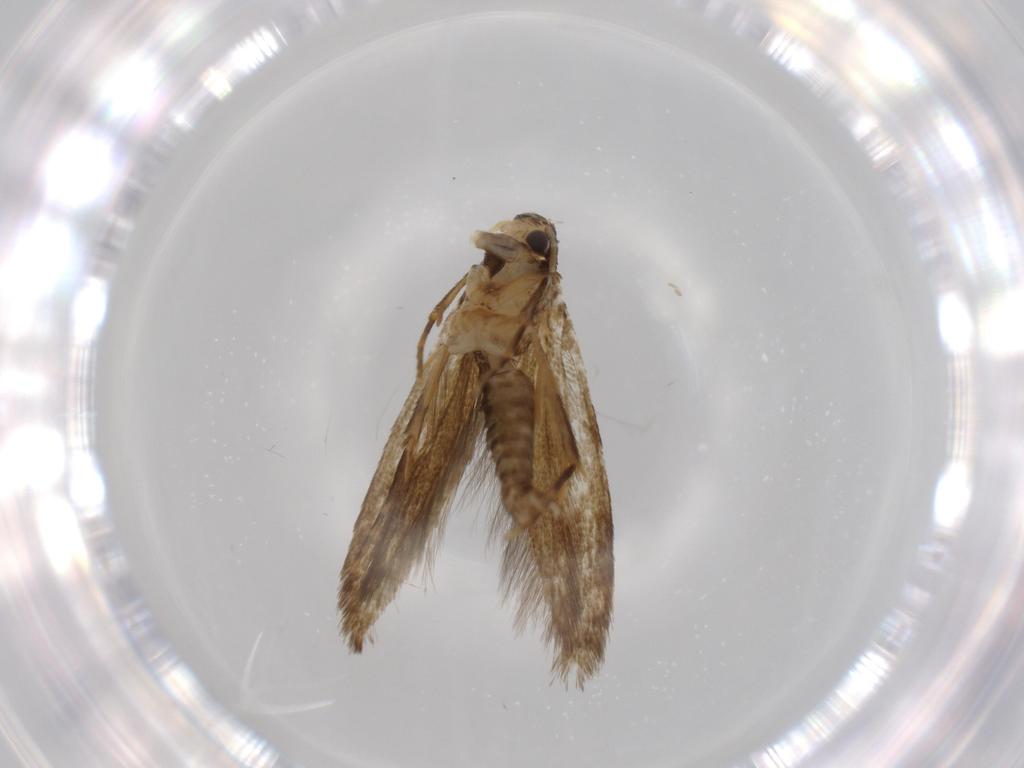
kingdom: Animalia
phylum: Arthropoda
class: Insecta
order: Lepidoptera
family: Tineidae
